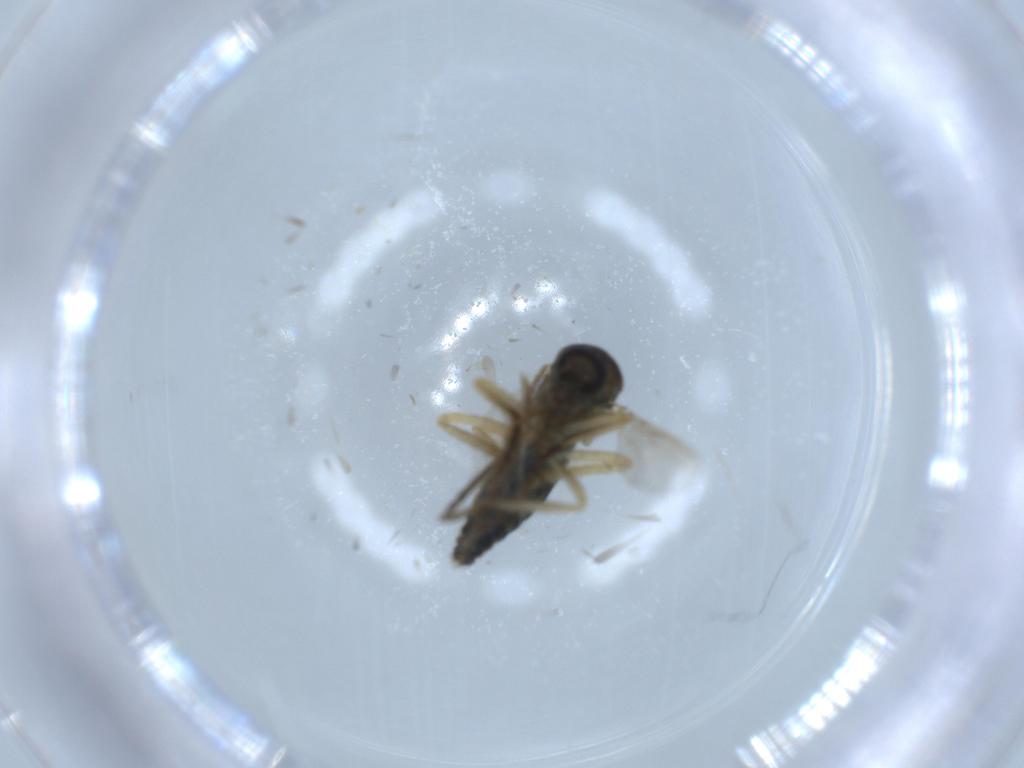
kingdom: Animalia
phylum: Arthropoda
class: Insecta
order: Diptera
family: Ceratopogonidae
